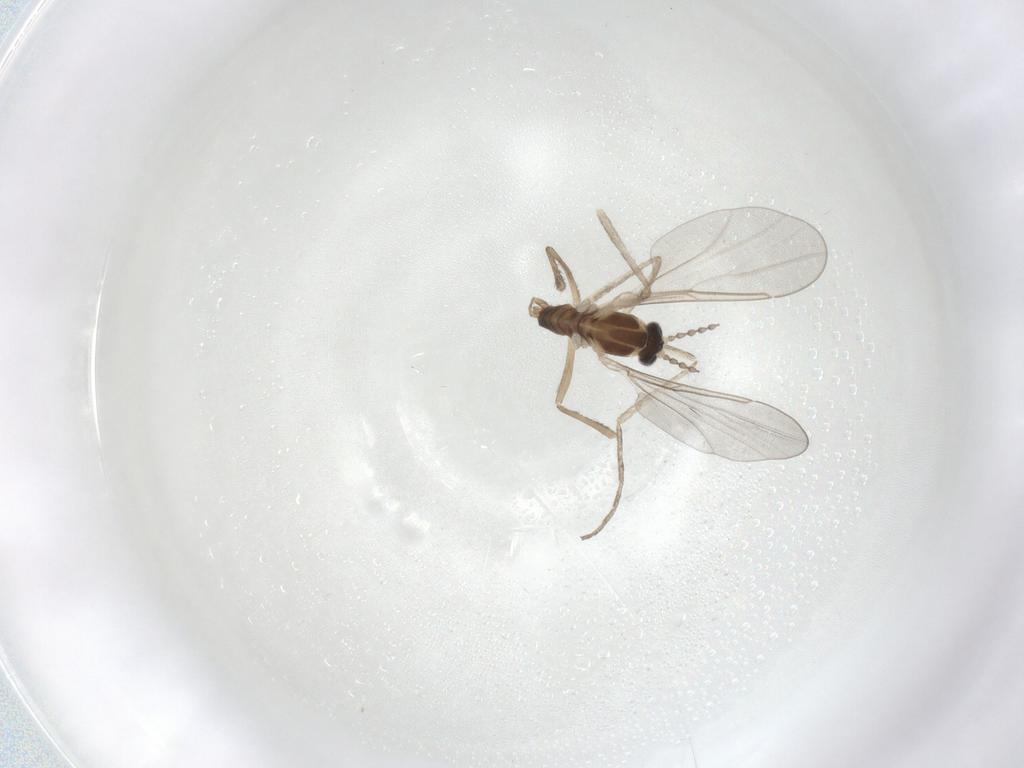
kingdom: Animalia
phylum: Arthropoda
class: Insecta
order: Diptera
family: Cecidomyiidae
